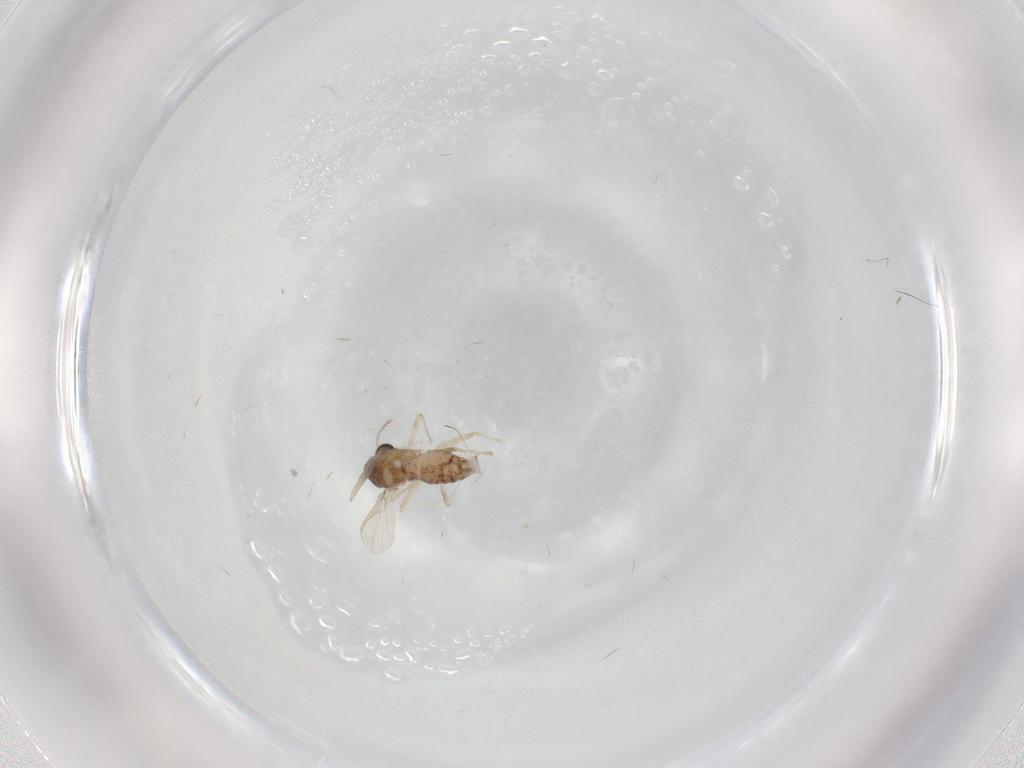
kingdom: Animalia
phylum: Arthropoda
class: Insecta
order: Diptera
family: Chironomidae
